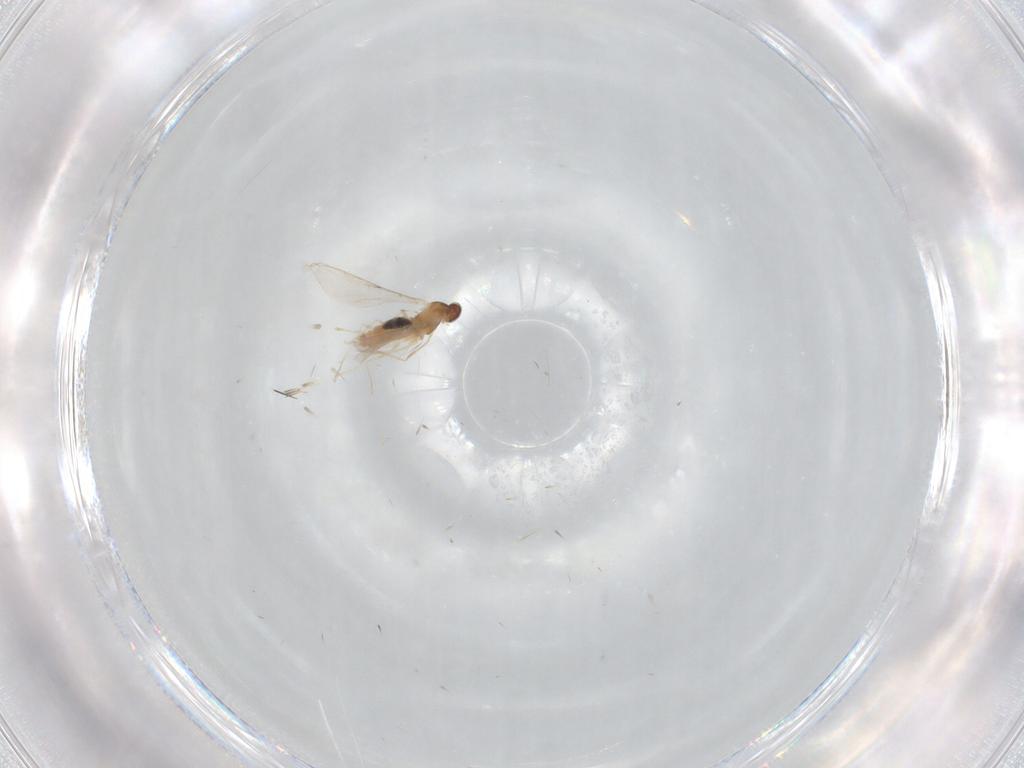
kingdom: Animalia
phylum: Arthropoda
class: Insecta
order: Diptera
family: Cecidomyiidae
